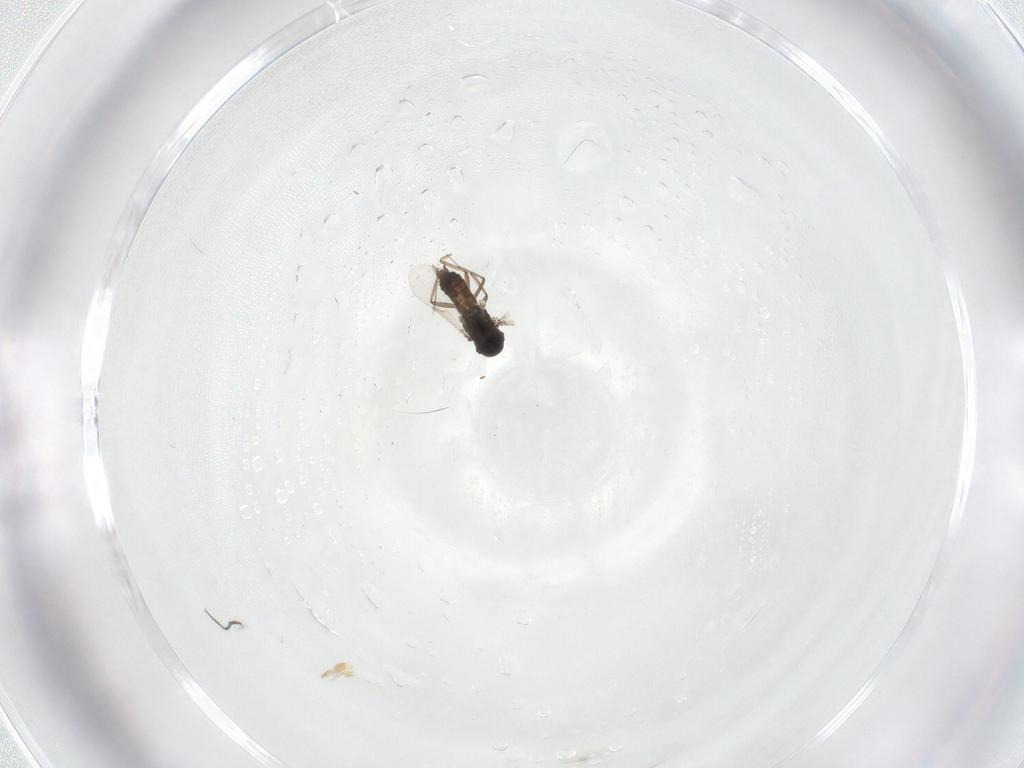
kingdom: Animalia
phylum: Arthropoda
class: Insecta
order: Diptera
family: Ceratopogonidae
